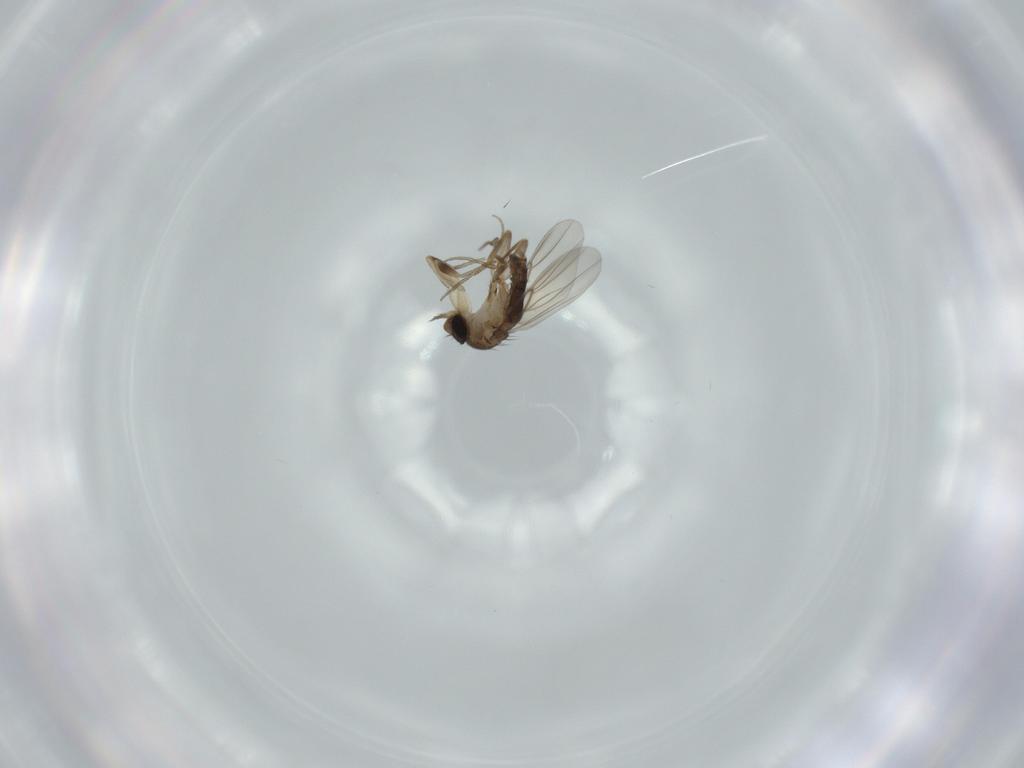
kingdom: Animalia
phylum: Arthropoda
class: Insecta
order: Diptera
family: Phoridae
